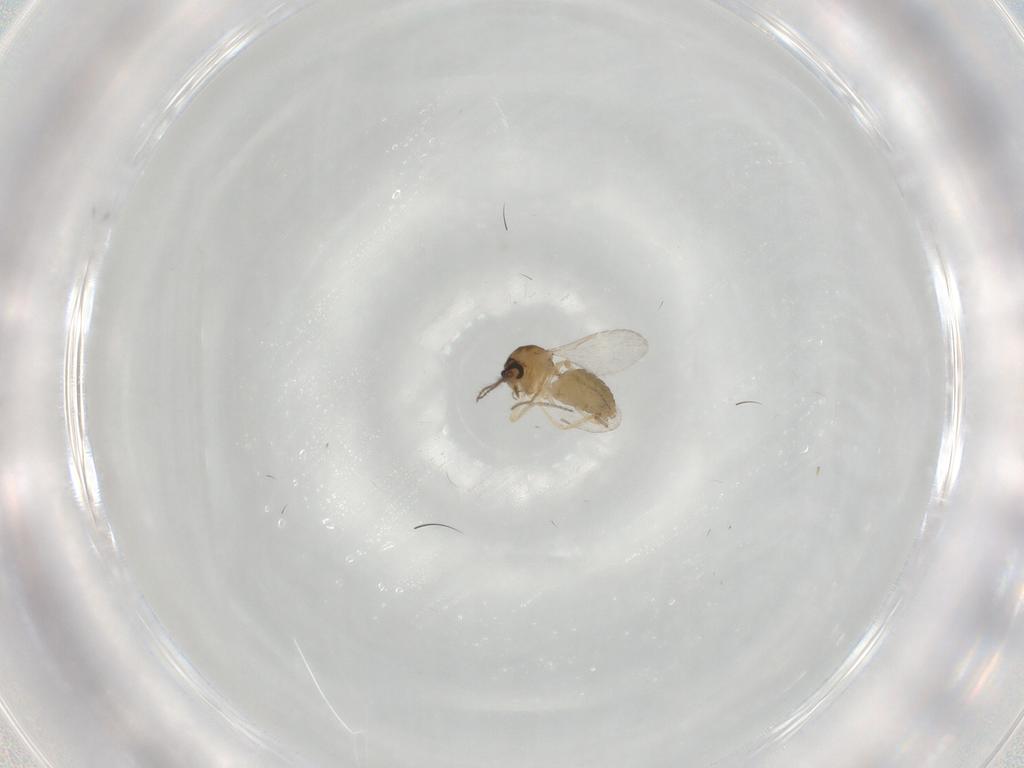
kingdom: Animalia
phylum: Arthropoda
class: Insecta
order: Diptera
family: Ceratopogonidae
